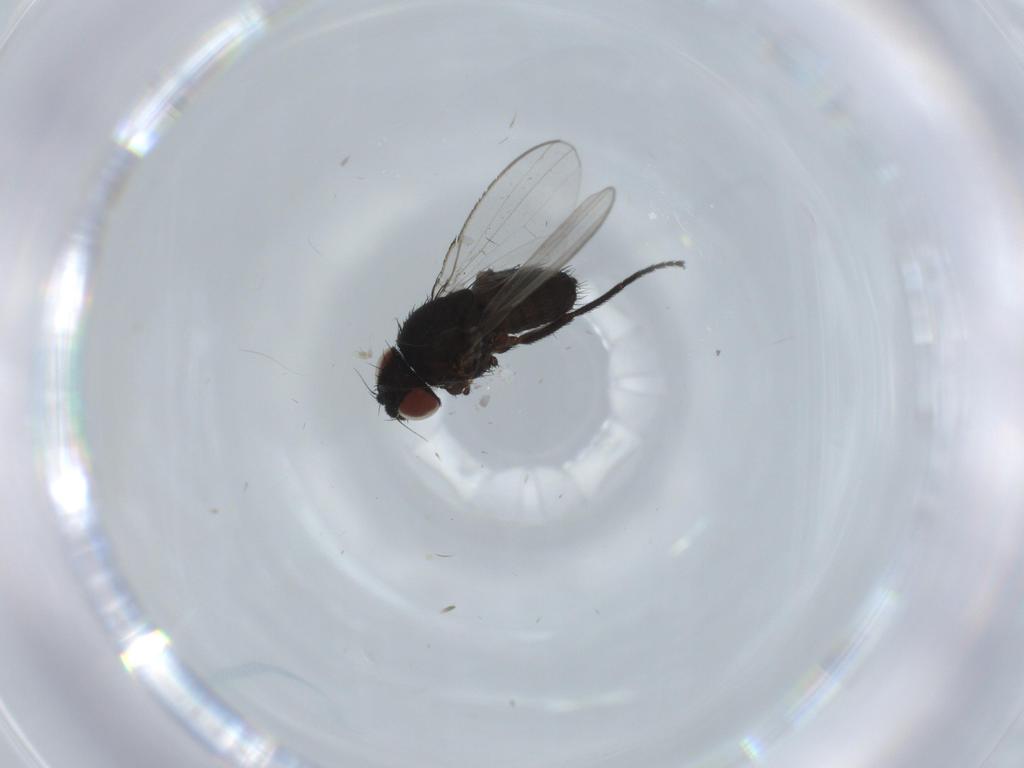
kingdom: Animalia
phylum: Arthropoda
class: Insecta
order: Diptera
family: Milichiidae
